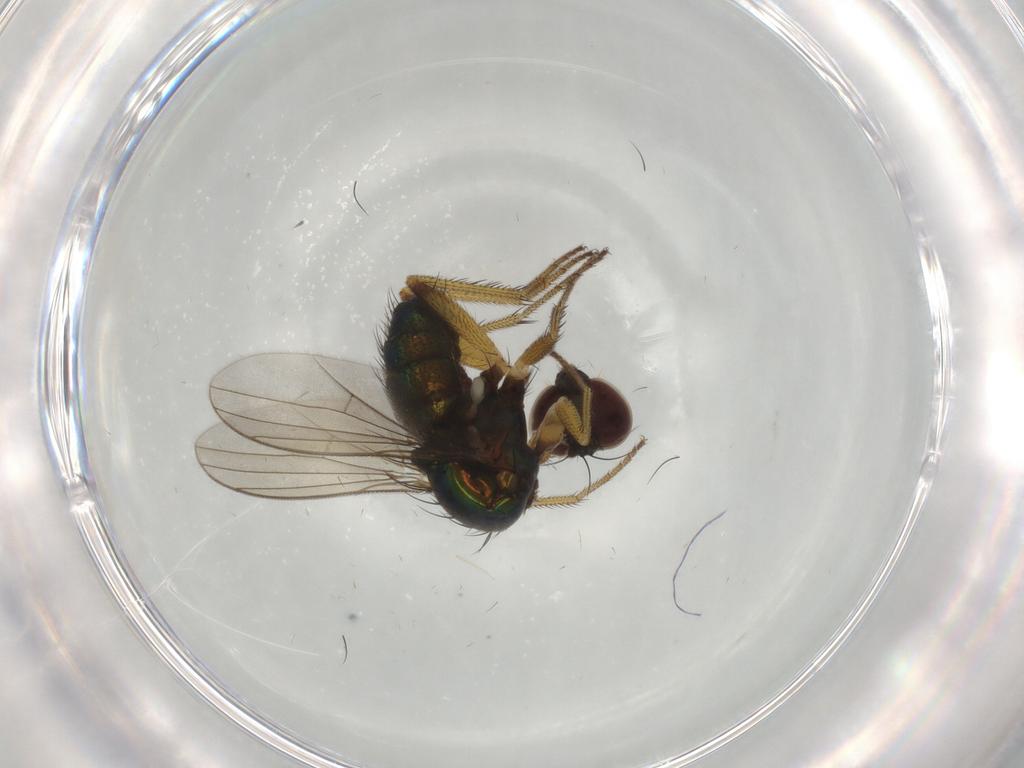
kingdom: Animalia
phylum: Arthropoda
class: Insecta
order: Diptera
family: Dolichopodidae
